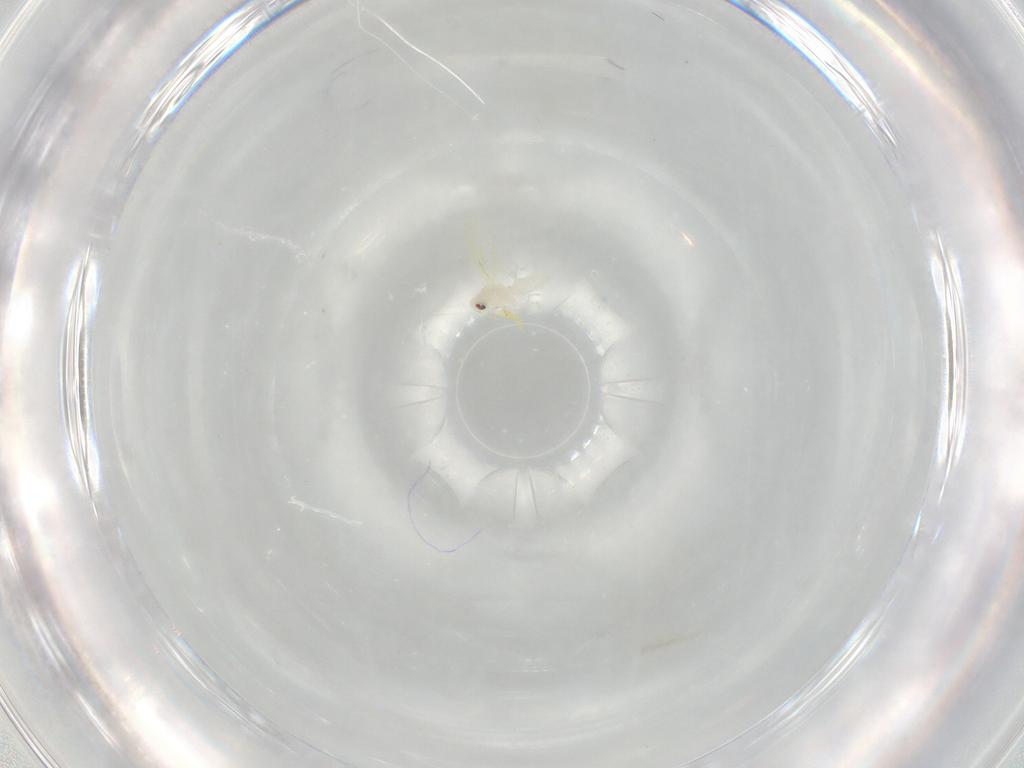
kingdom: Animalia
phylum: Arthropoda
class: Insecta
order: Hemiptera
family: Aleyrodidae
